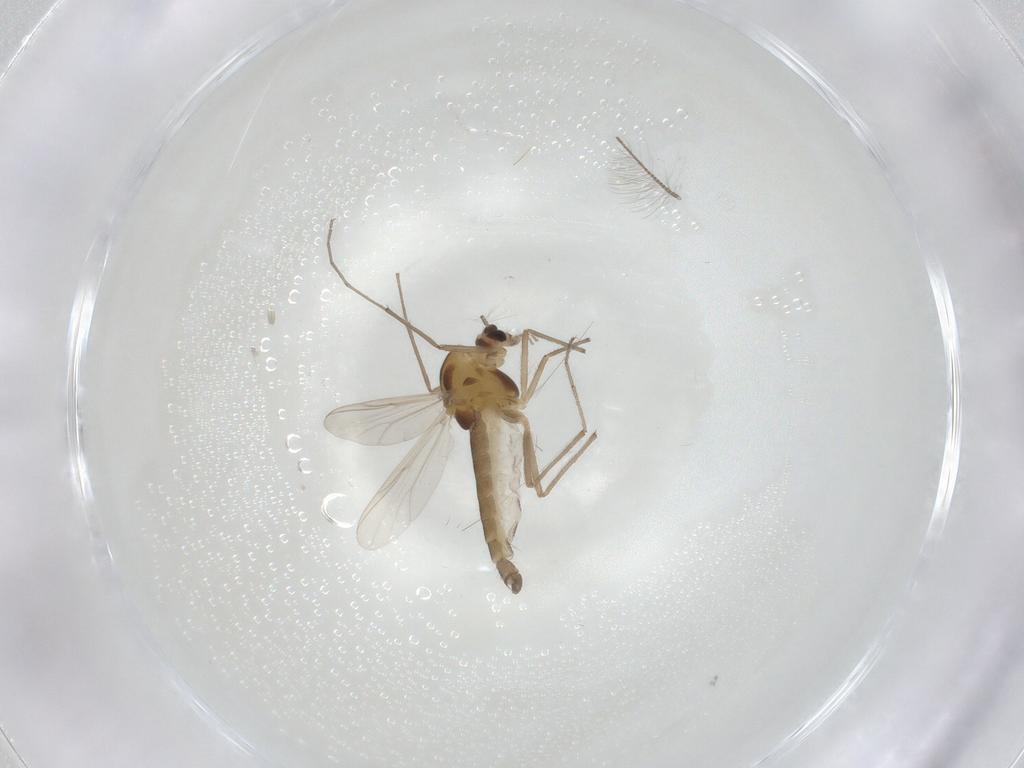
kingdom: Animalia
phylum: Arthropoda
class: Insecta
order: Diptera
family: Chironomidae
